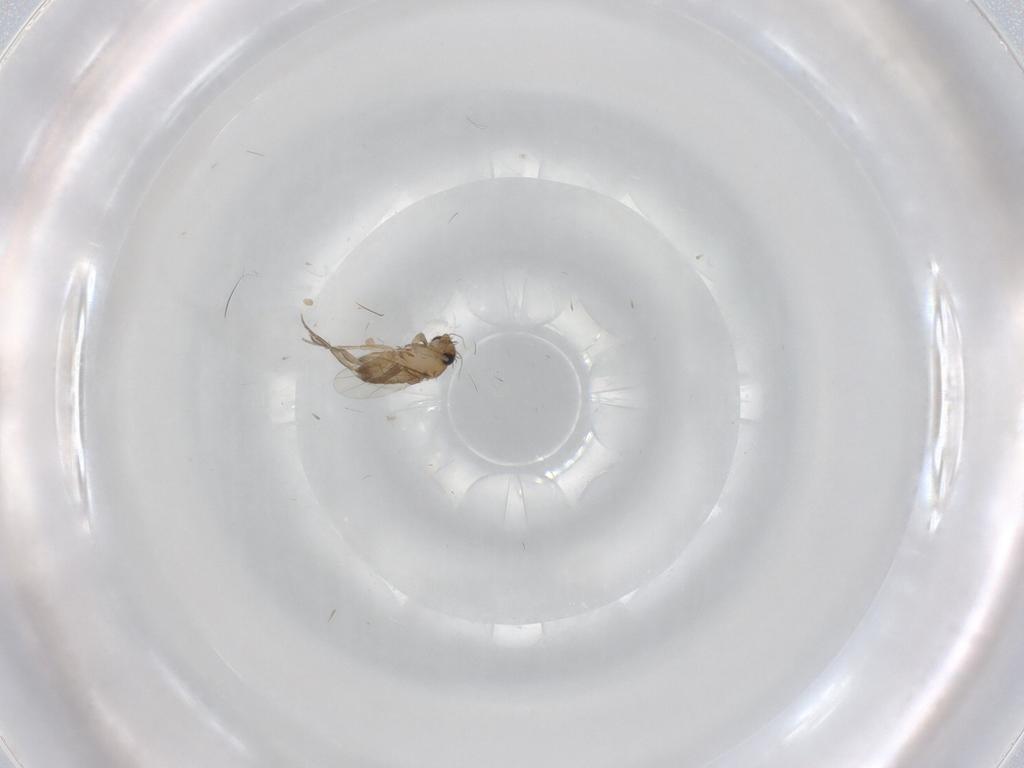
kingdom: Animalia
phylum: Arthropoda
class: Insecta
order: Diptera
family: Chironomidae
